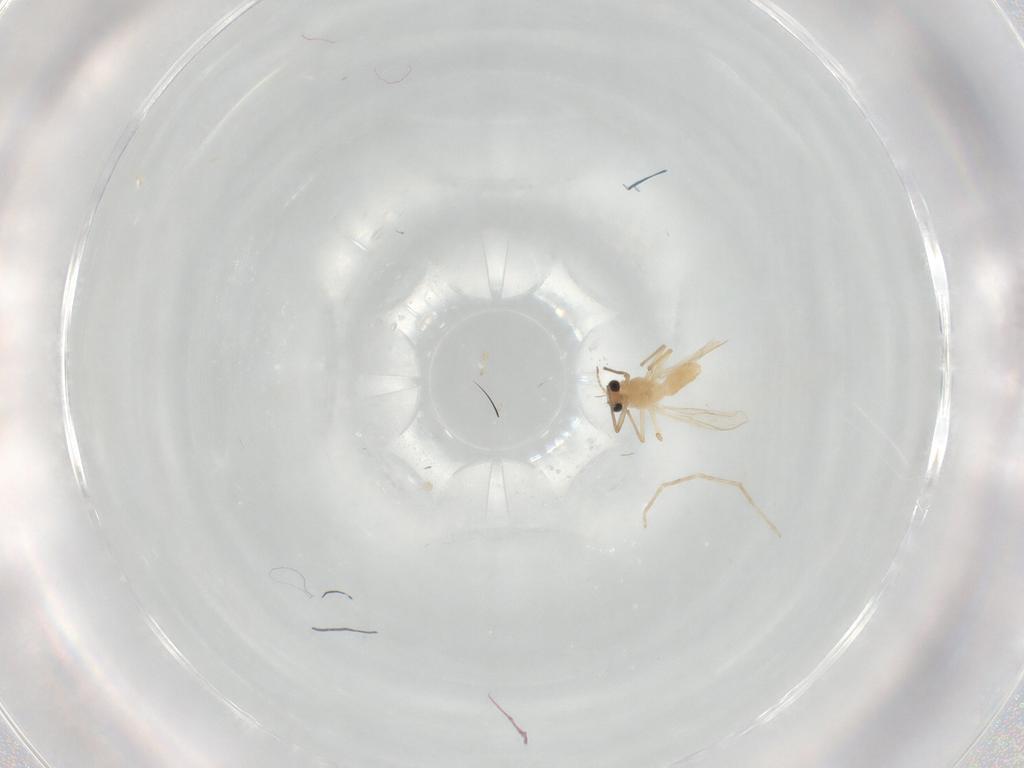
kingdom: Animalia
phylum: Arthropoda
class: Insecta
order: Diptera
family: Chironomidae
